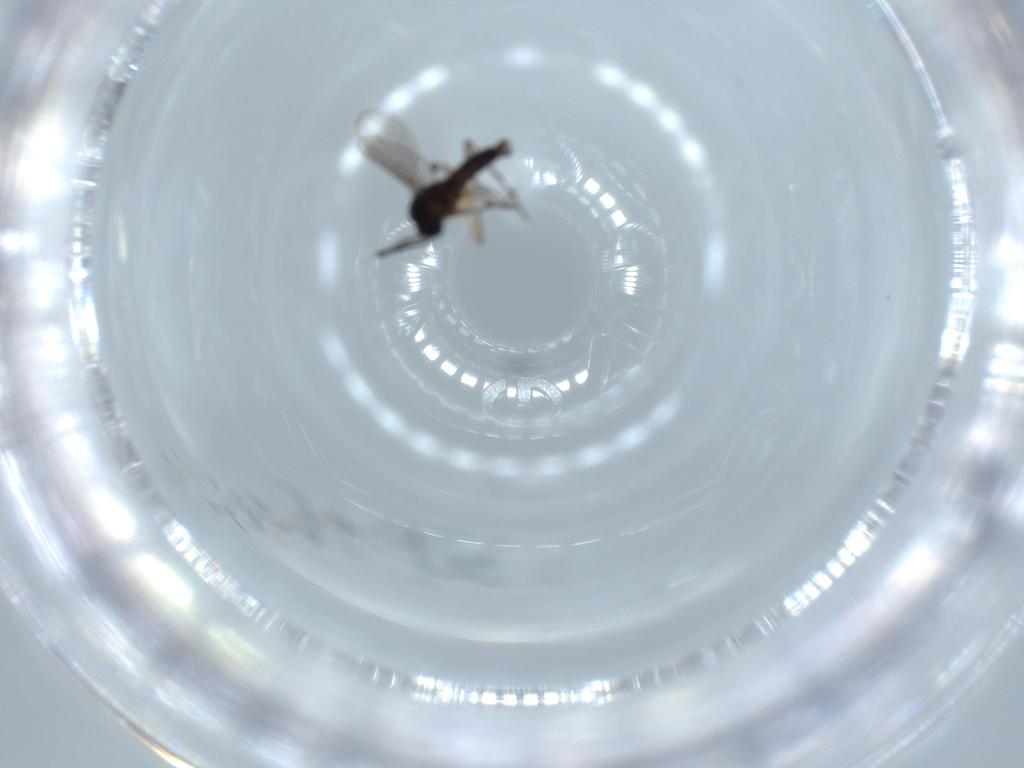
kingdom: Animalia
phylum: Arthropoda
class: Insecta
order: Diptera
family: Sciaridae
